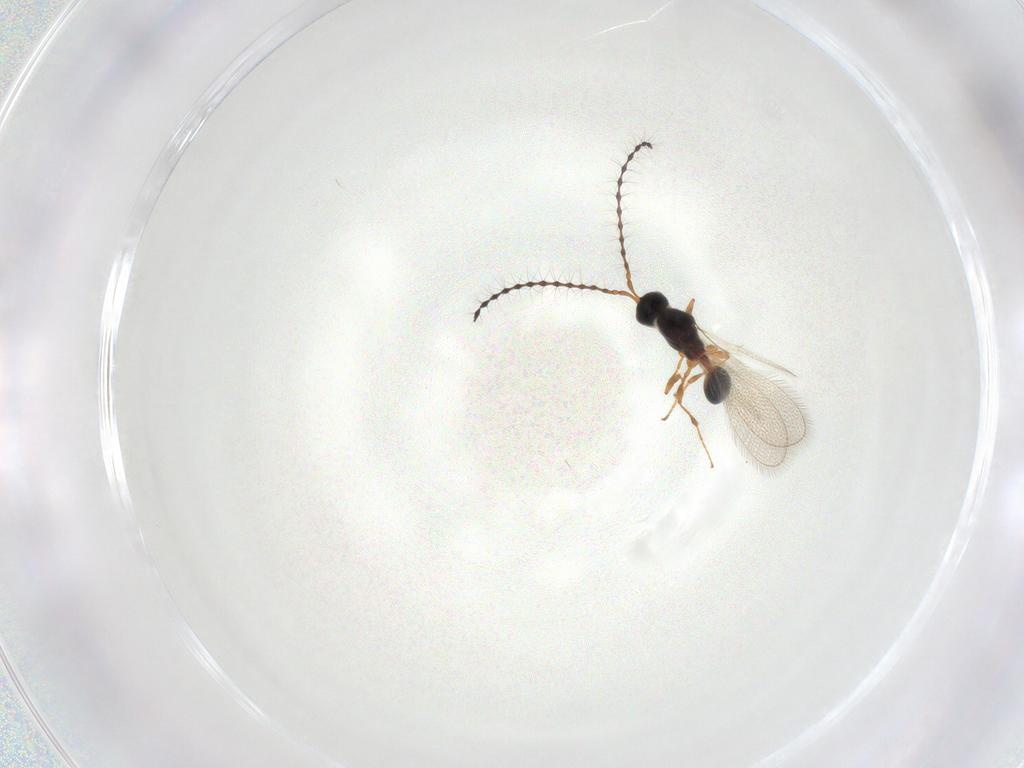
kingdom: Animalia
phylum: Arthropoda
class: Insecta
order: Hymenoptera
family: Diapriidae
